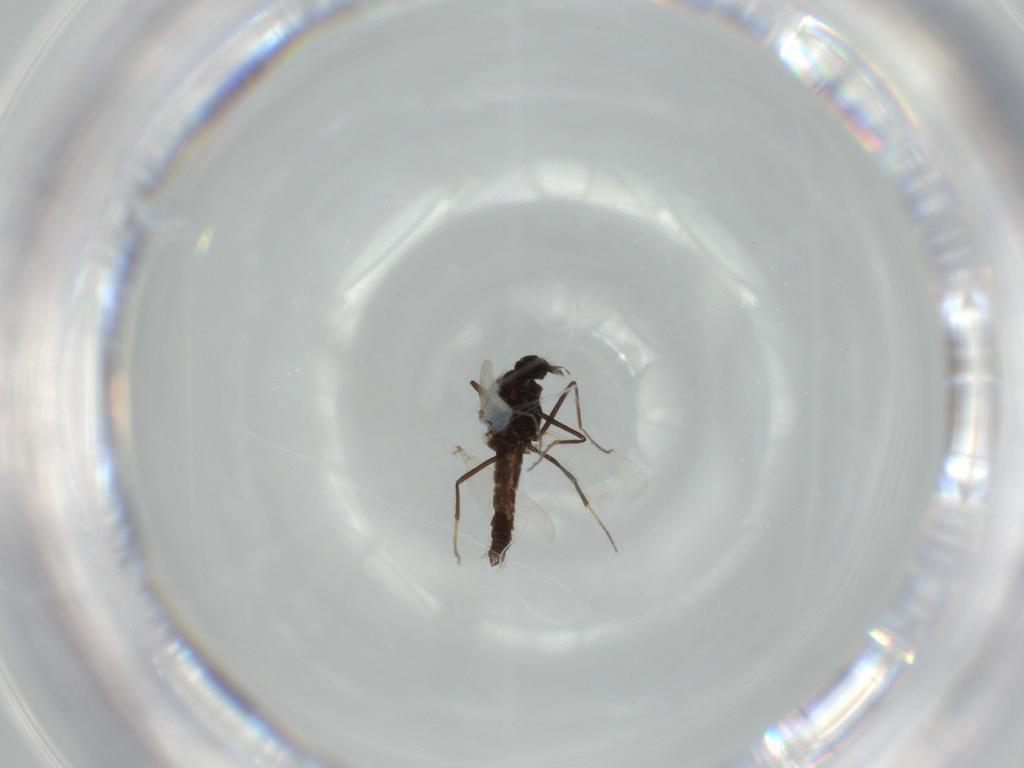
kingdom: Animalia
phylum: Arthropoda
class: Insecta
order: Diptera
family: Ceratopogonidae
